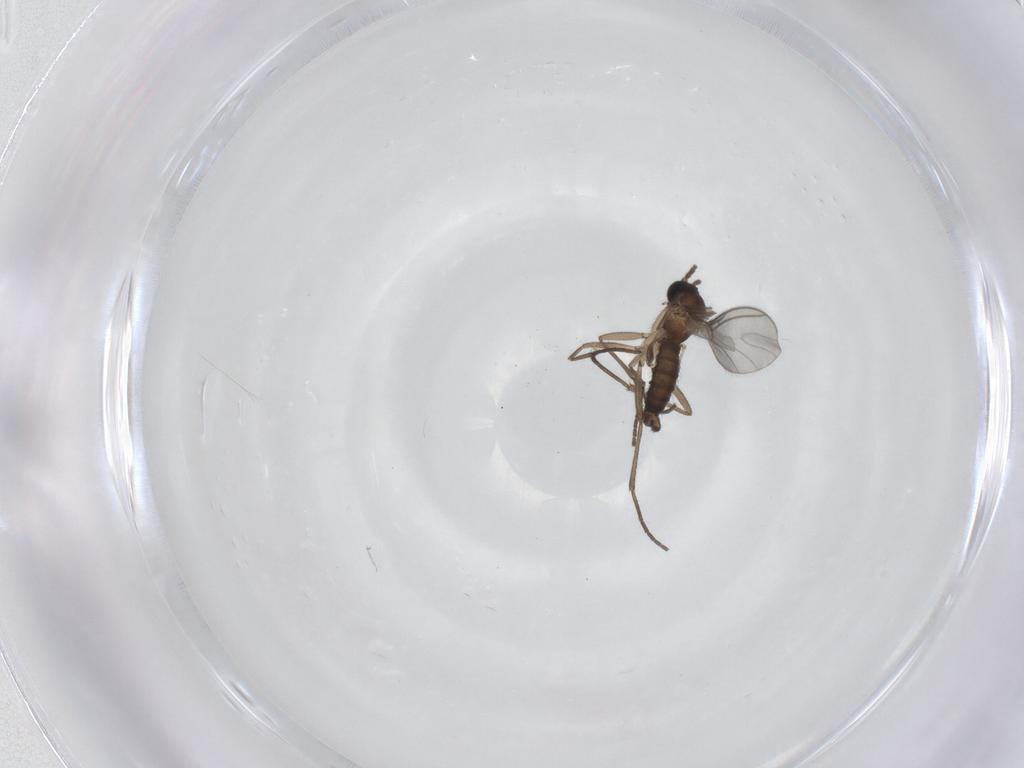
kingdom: Animalia
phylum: Arthropoda
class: Insecta
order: Diptera
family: Sciaridae
